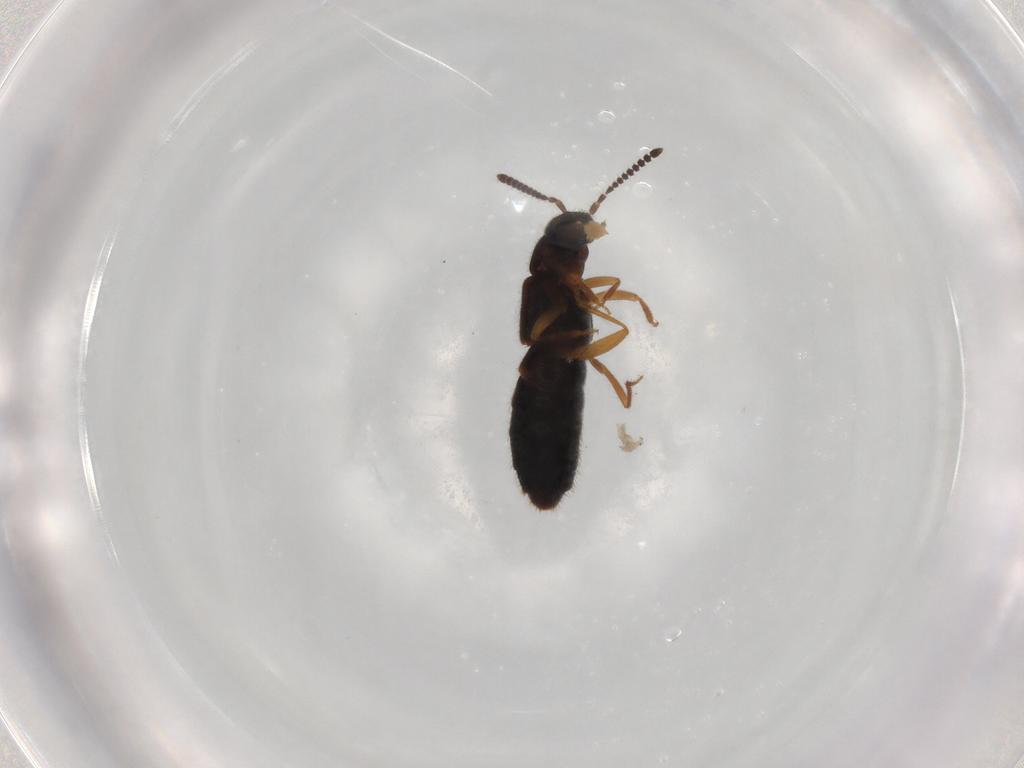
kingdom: Animalia
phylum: Arthropoda
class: Insecta
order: Coleoptera
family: Staphylinidae
